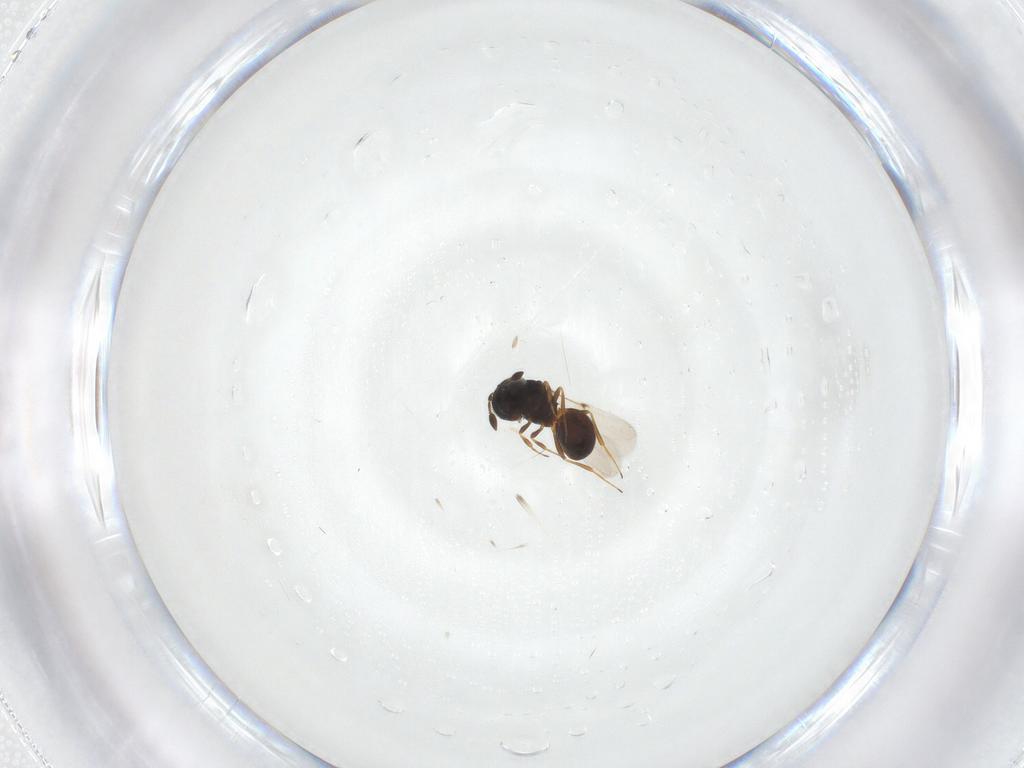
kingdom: Animalia
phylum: Arthropoda
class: Arachnida
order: Araneae
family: Pholcidae
